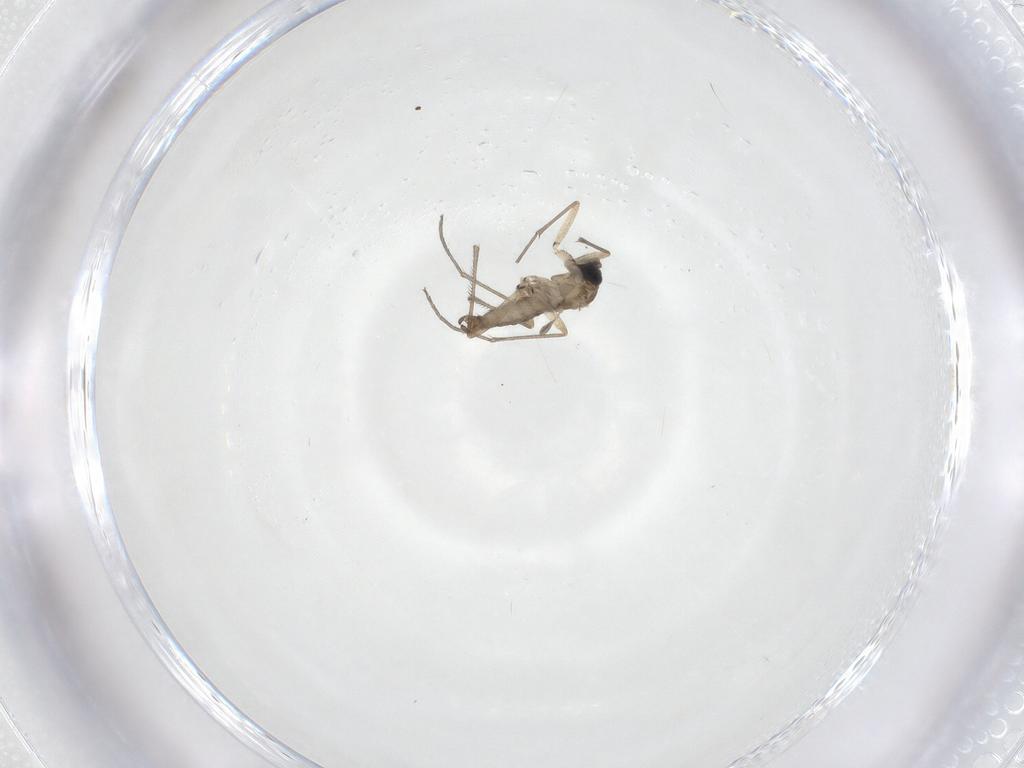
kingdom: Animalia
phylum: Arthropoda
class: Insecta
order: Diptera
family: Sciaridae
